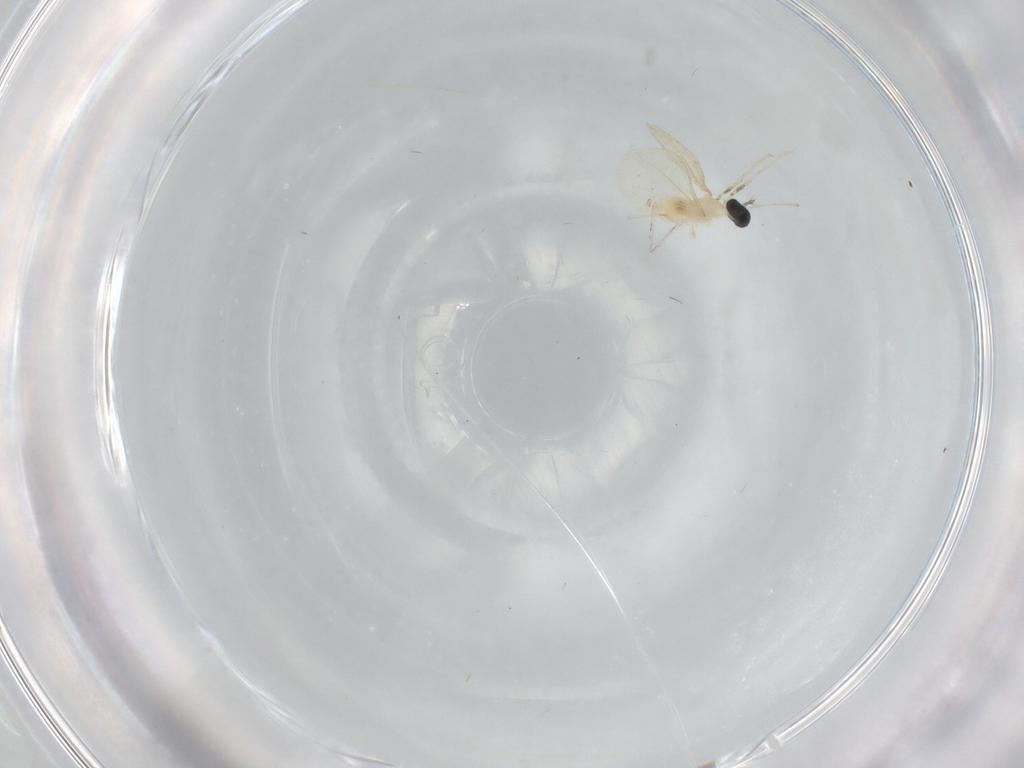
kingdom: Animalia
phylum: Arthropoda
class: Insecta
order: Diptera
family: Cecidomyiidae
